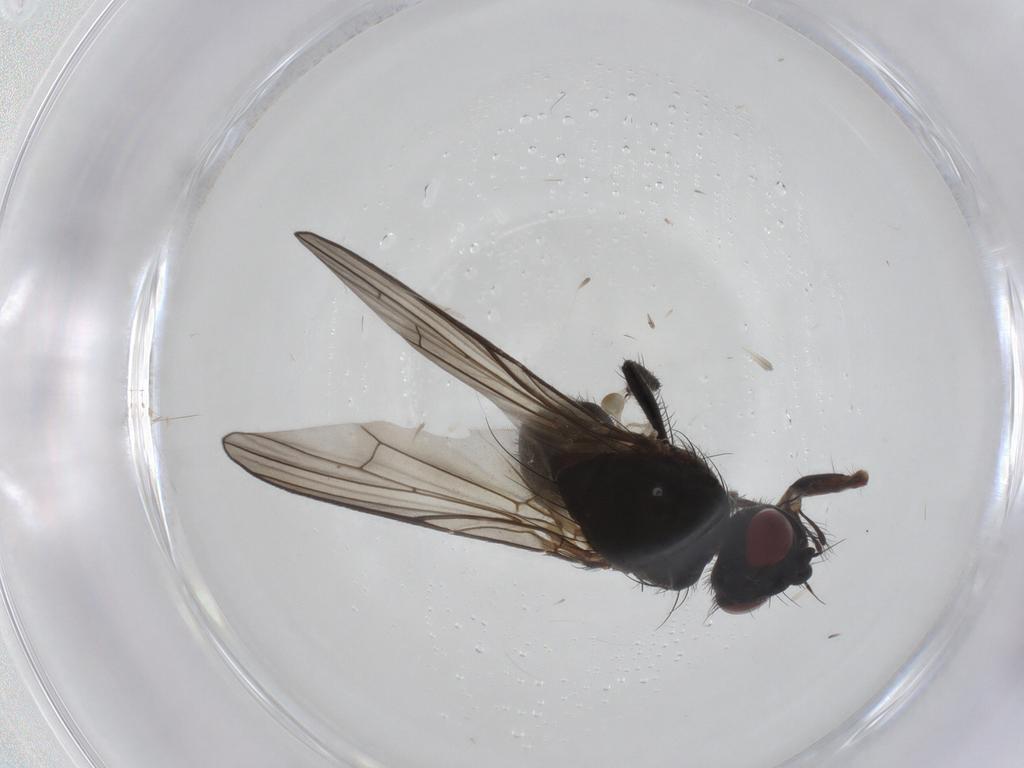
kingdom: Animalia
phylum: Arthropoda
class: Insecta
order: Diptera
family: Anthomyiidae
